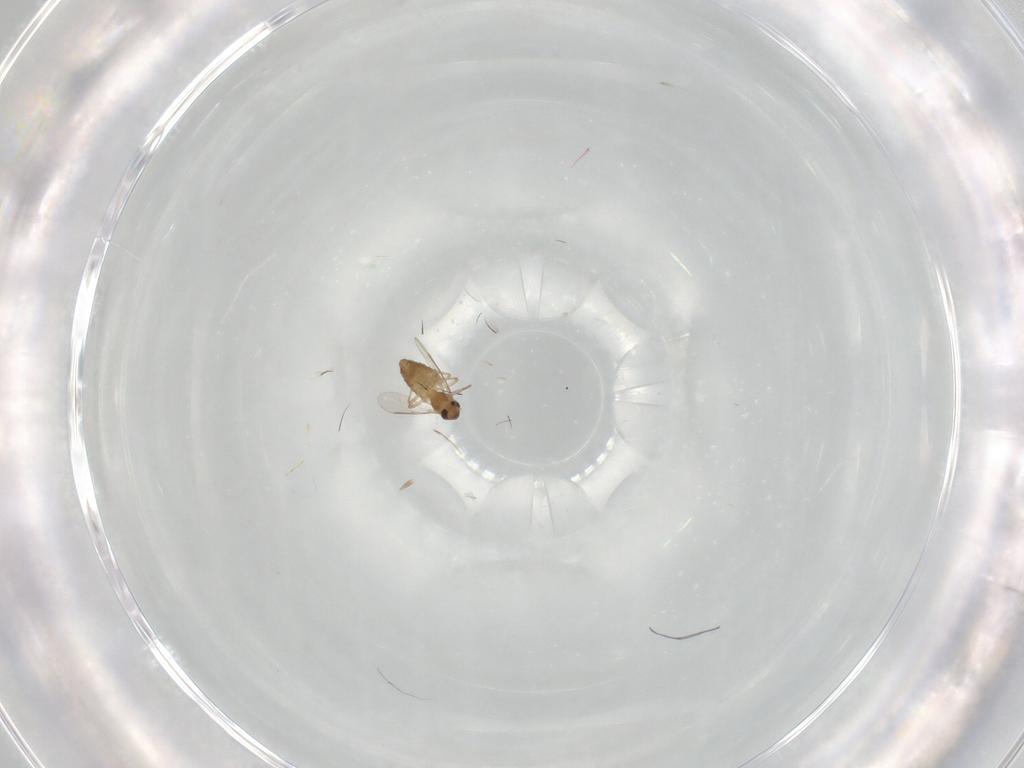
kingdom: Animalia
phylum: Arthropoda
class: Insecta
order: Diptera
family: Chironomidae
